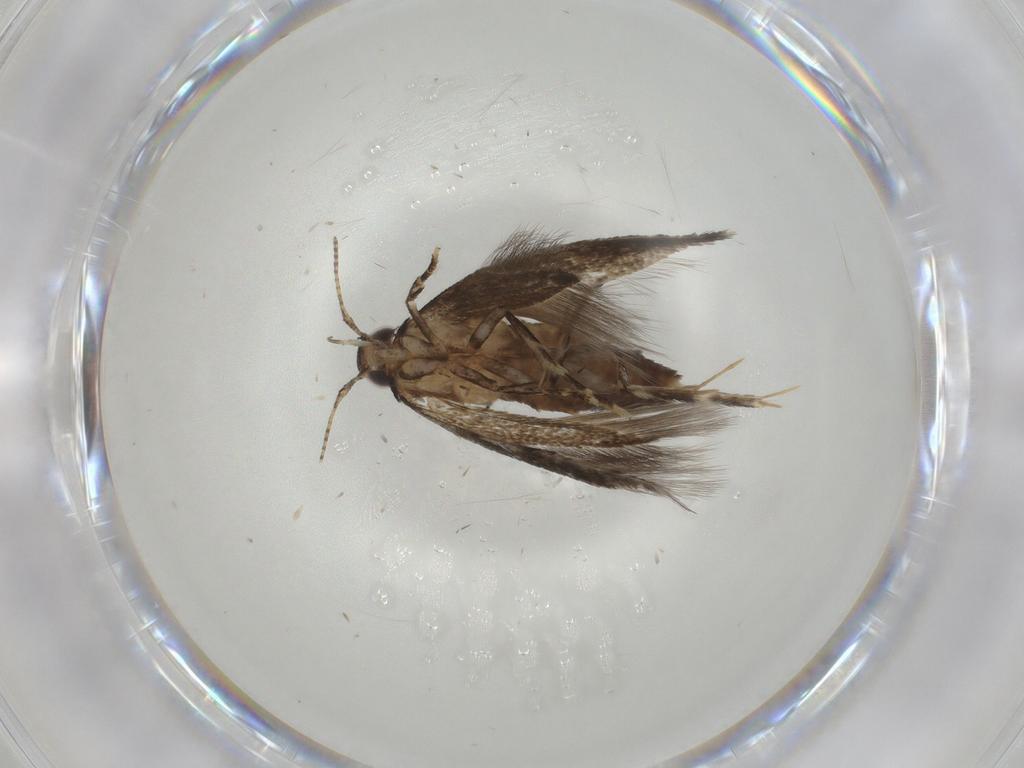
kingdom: Animalia
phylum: Arthropoda
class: Insecta
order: Lepidoptera
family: Cosmopterigidae
